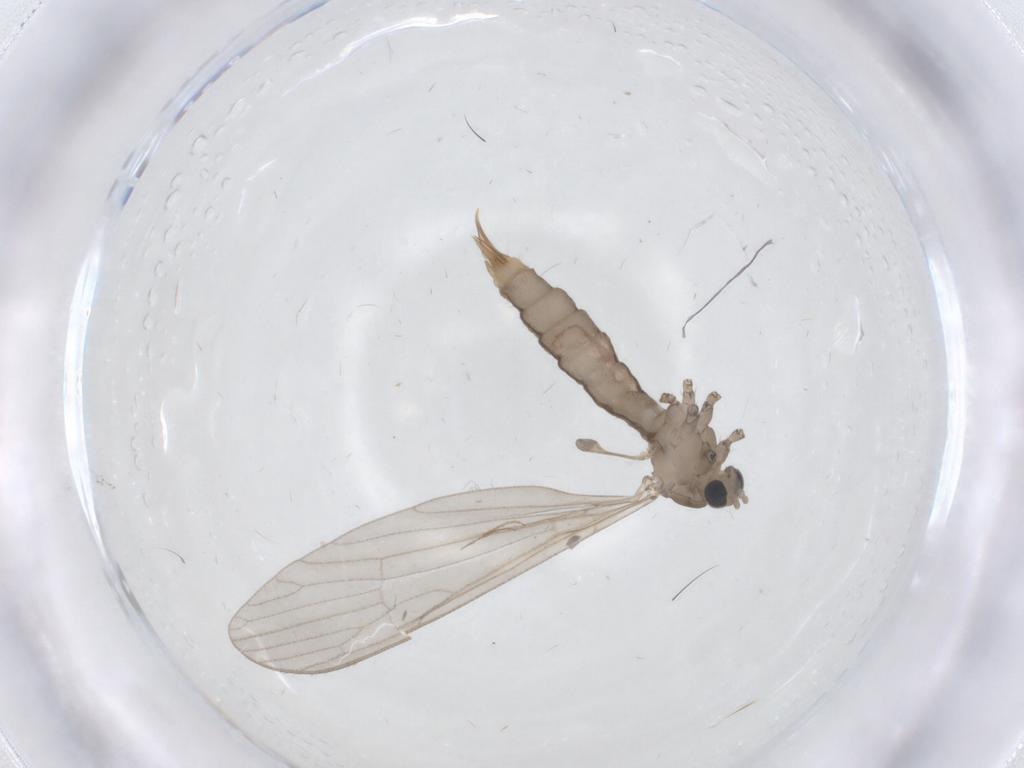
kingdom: Animalia
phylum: Arthropoda
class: Insecta
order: Diptera
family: Limoniidae
